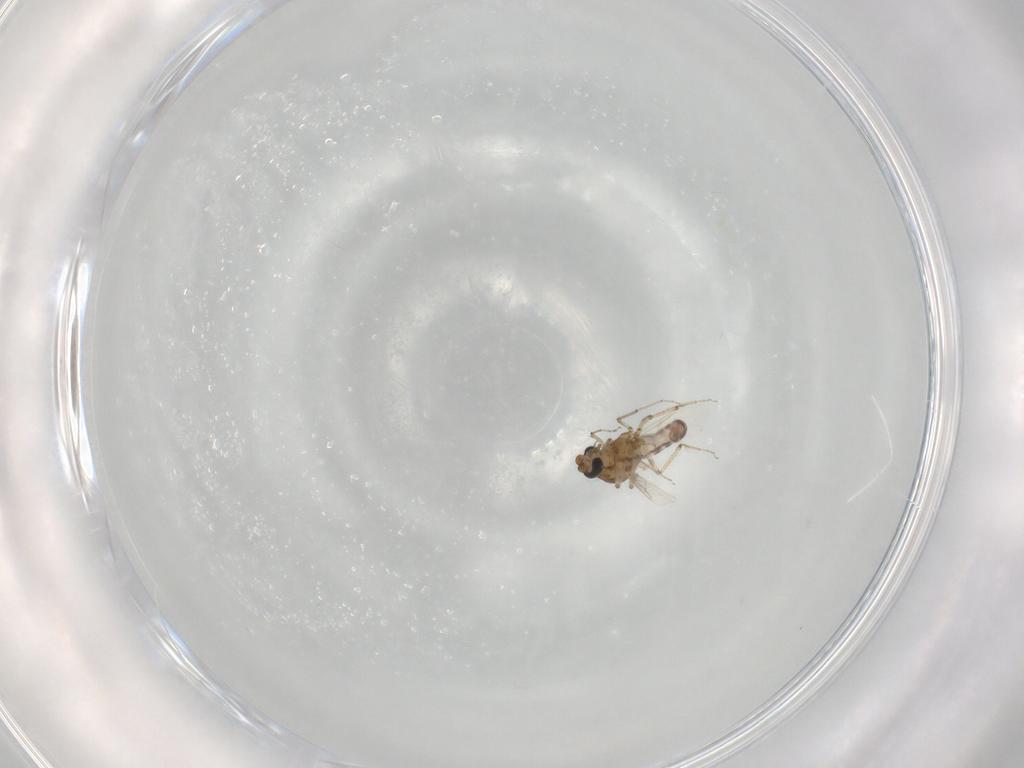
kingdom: Animalia
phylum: Arthropoda
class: Insecta
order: Diptera
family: Ceratopogonidae
